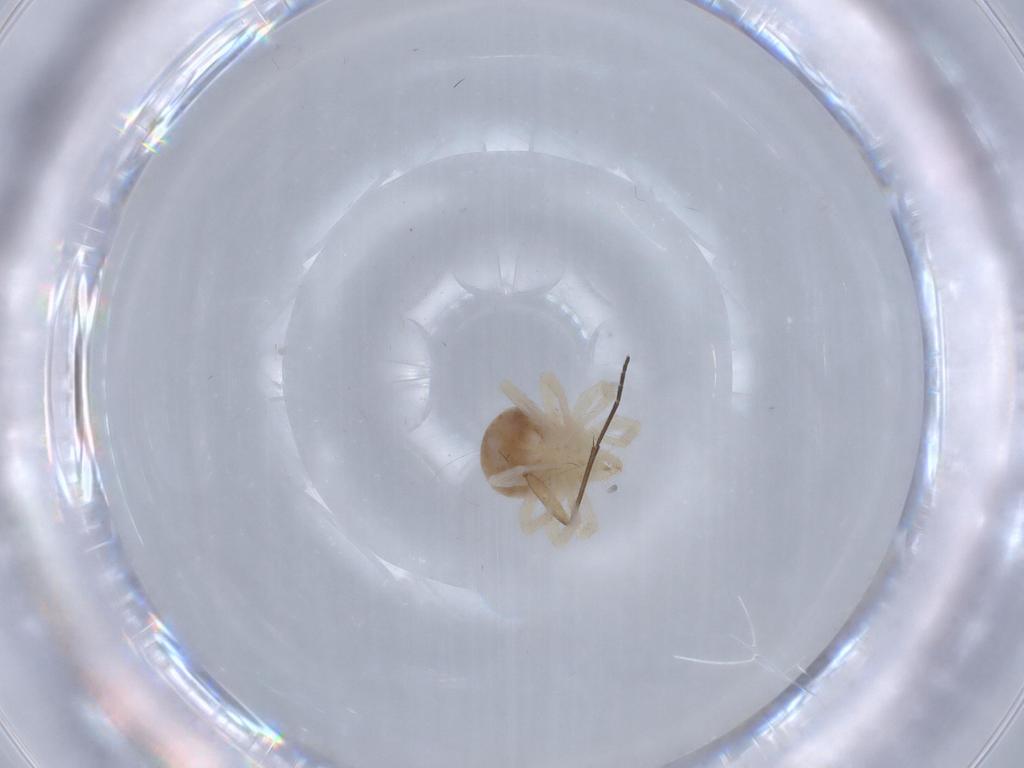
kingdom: Animalia
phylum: Arthropoda
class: Arachnida
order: Trombidiformes
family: Anystidae
